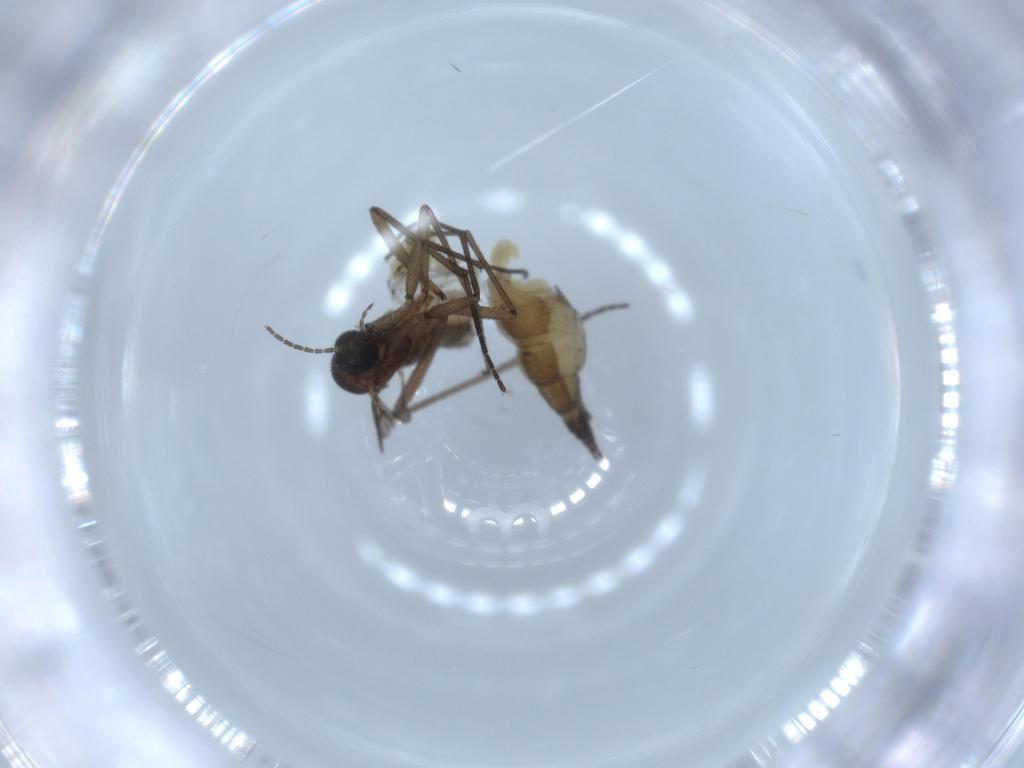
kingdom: Animalia
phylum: Arthropoda
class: Insecta
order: Diptera
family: Sciaridae
